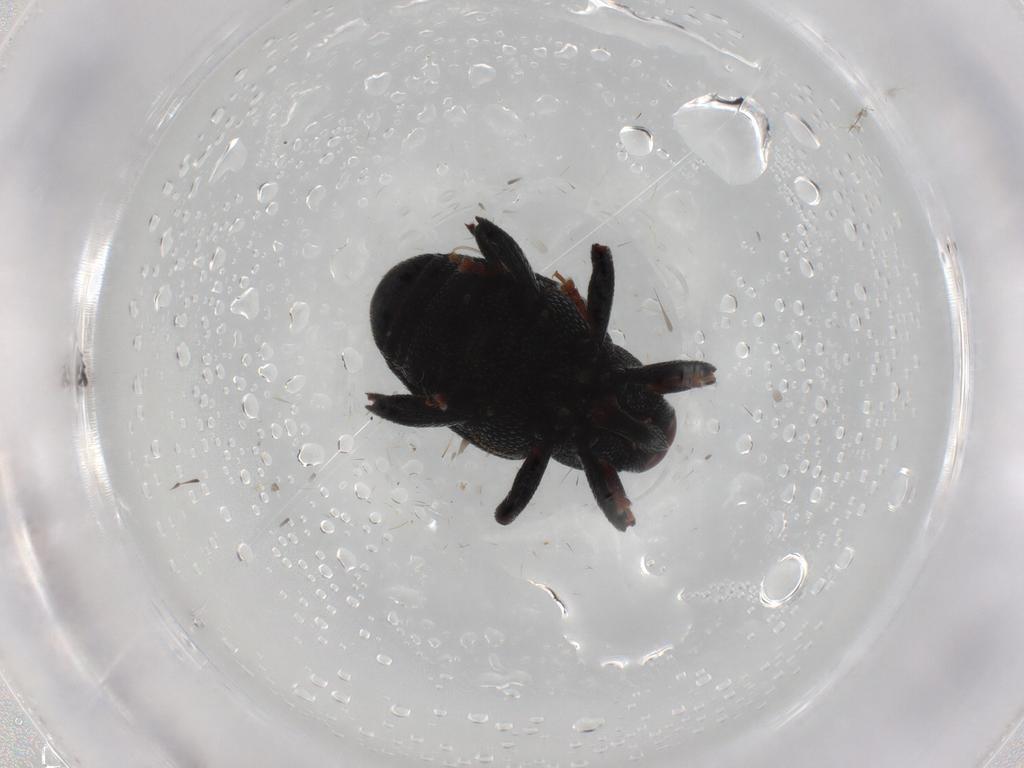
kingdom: Animalia
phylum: Arthropoda
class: Insecta
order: Coleoptera
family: Curculionidae
